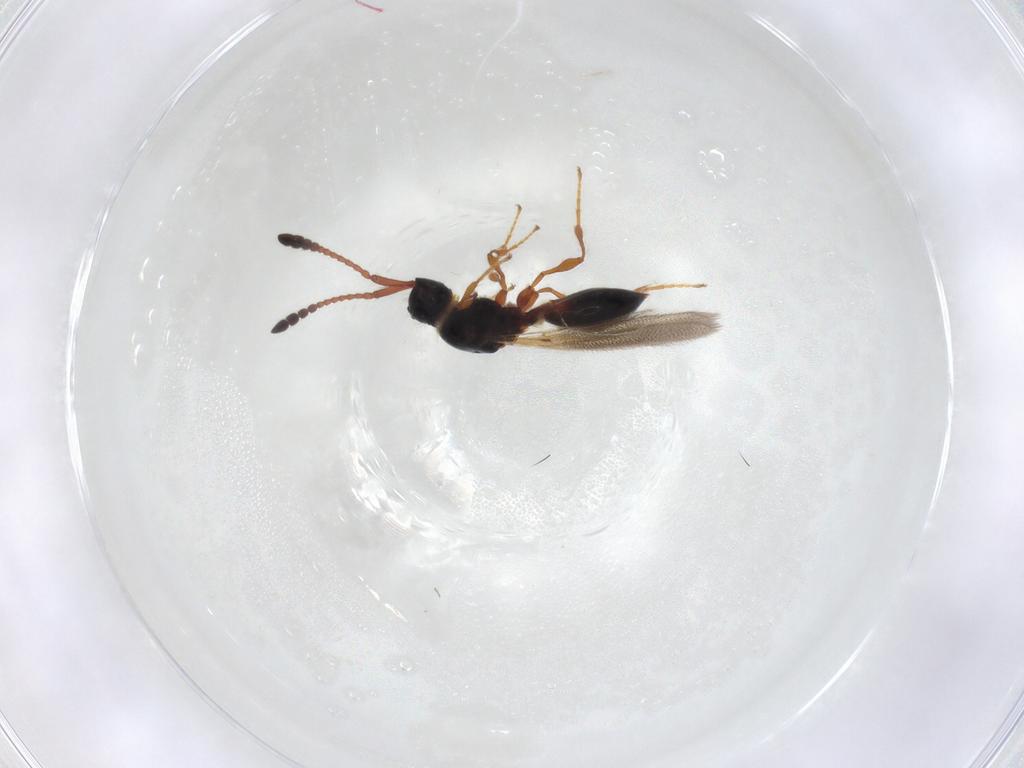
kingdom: Animalia
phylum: Arthropoda
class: Insecta
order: Hymenoptera
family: Diapriidae
